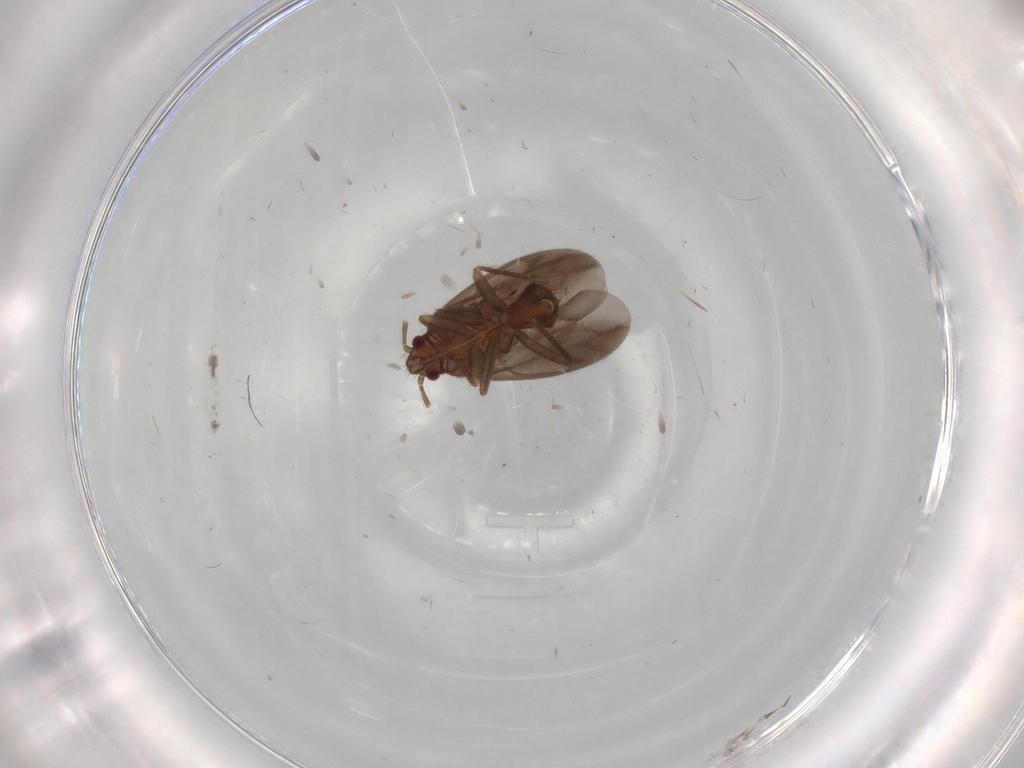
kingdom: Animalia
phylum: Arthropoda
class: Insecta
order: Hemiptera
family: Ceratocombidae
